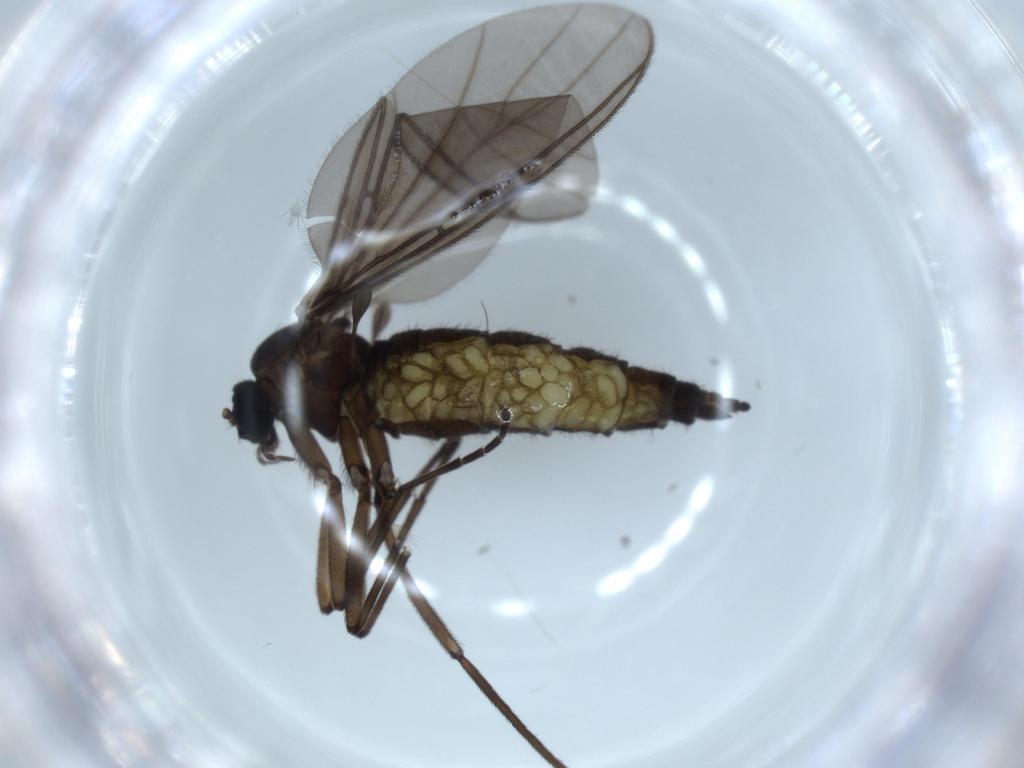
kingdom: Animalia
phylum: Arthropoda
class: Insecta
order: Diptera
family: Sciaridae
